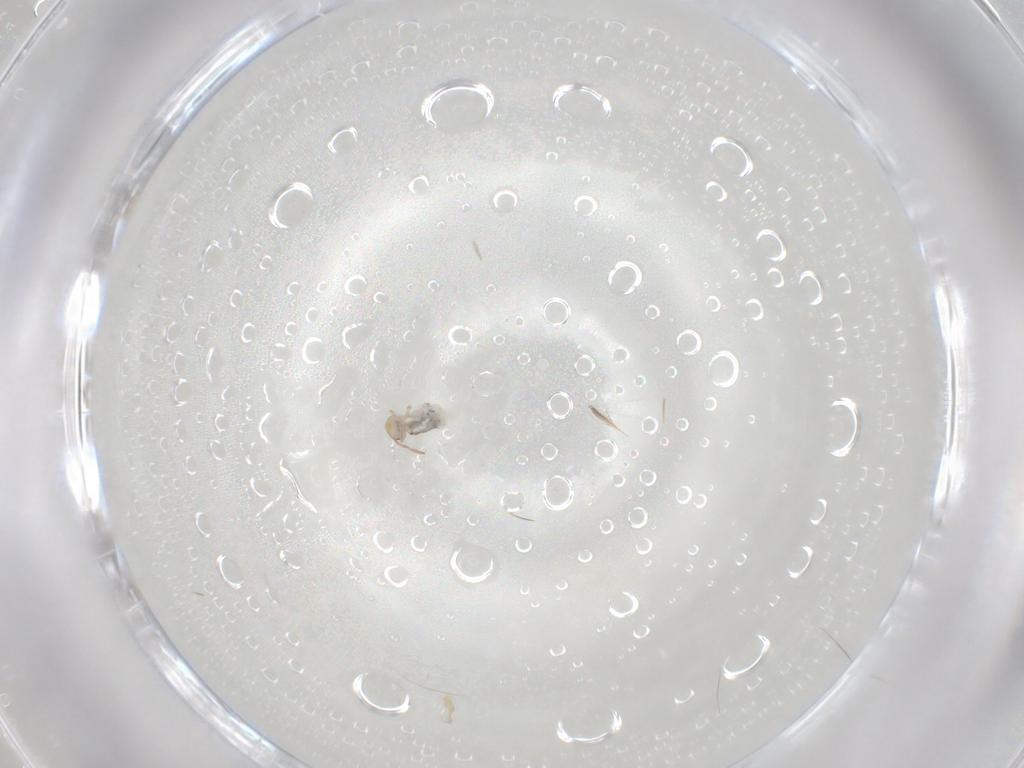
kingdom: Animalia
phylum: Arthropoda
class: Collembola
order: Symphypleona
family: Bourletiellidae
